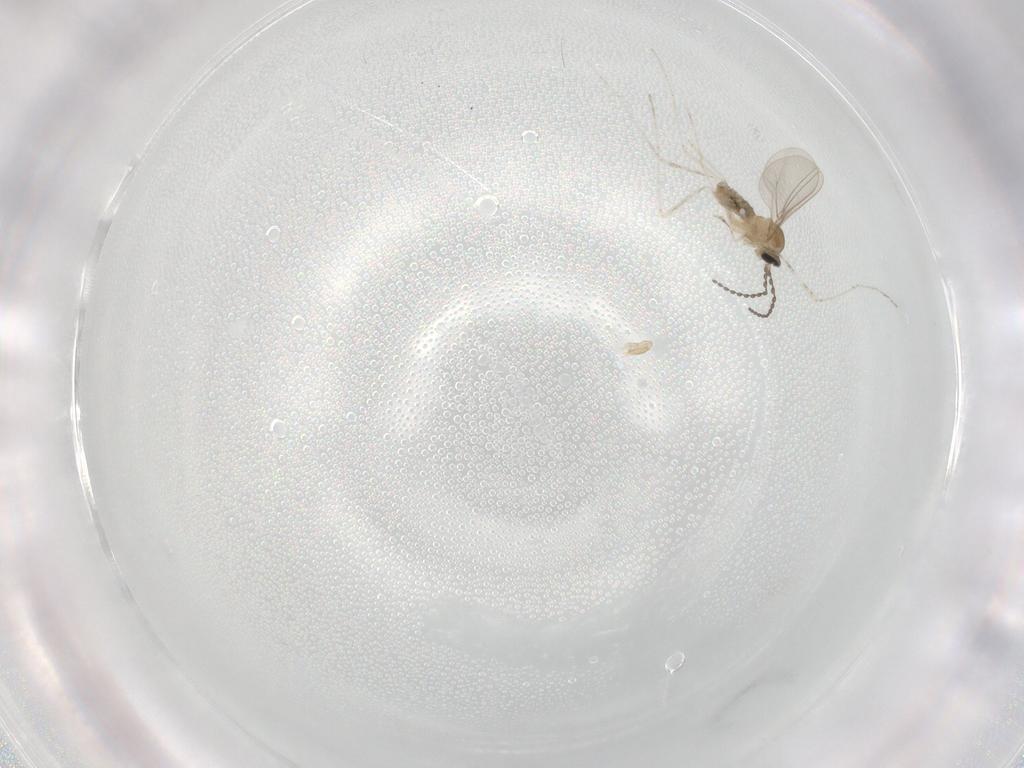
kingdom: Animalia
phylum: Arthropoda
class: Insecta
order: Diptera
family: Cecidomyiidae
